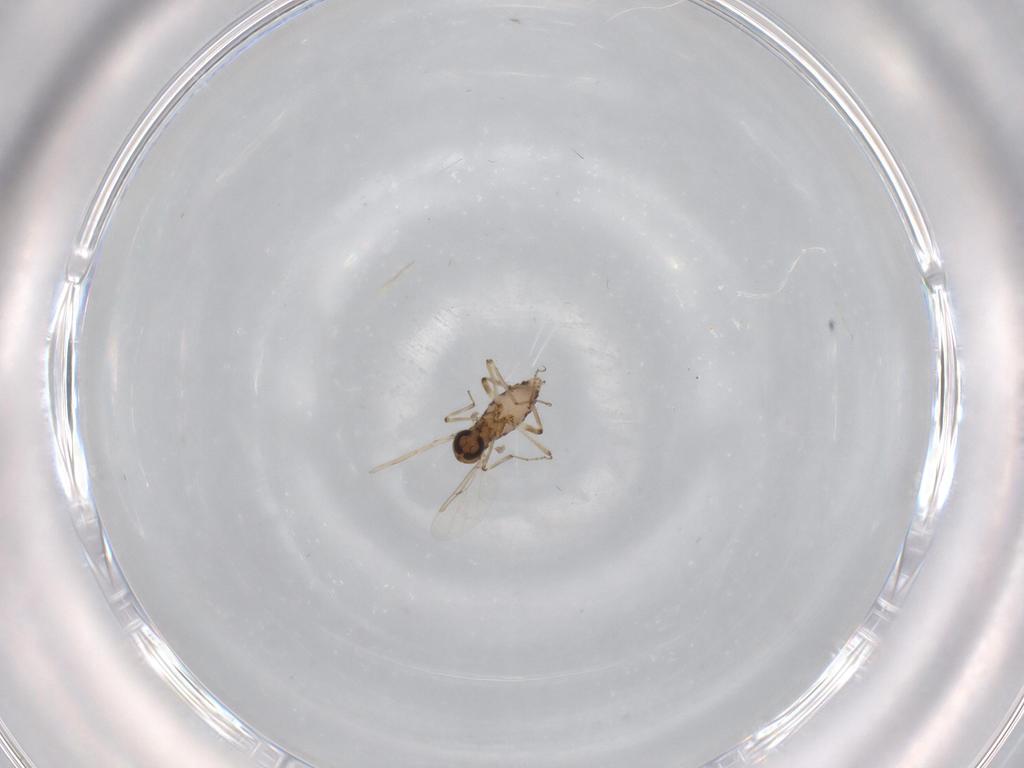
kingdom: Animalia
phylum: Arthropoda
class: Insecta
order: Diptera
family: Ceratopogonidae
